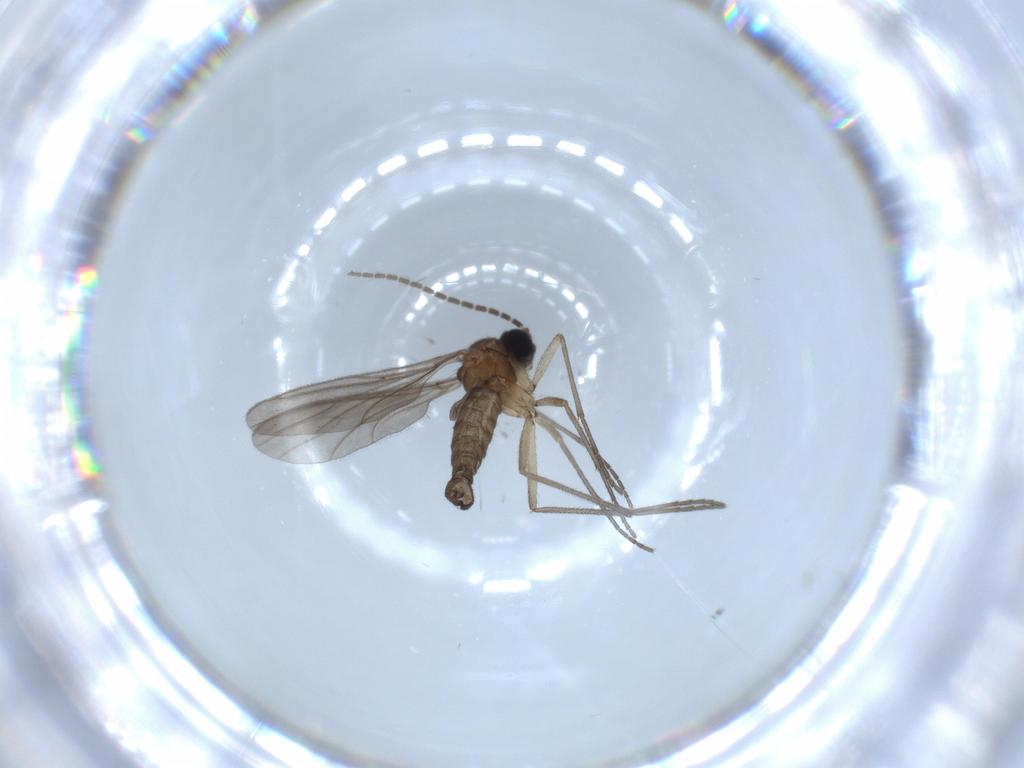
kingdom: Animalia
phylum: Arthropoda
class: Insecta
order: Diptera
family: Sciaridae
